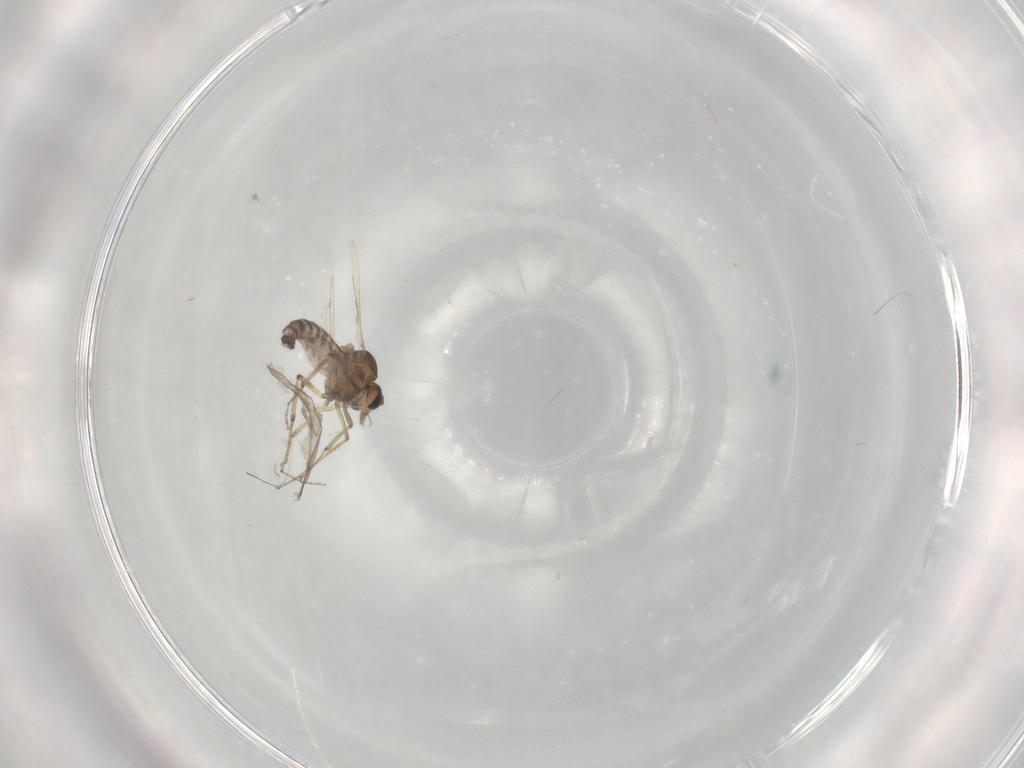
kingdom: Animalia
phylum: Arthropoda
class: Insecta
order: Diptera
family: Ceratopogonidae
